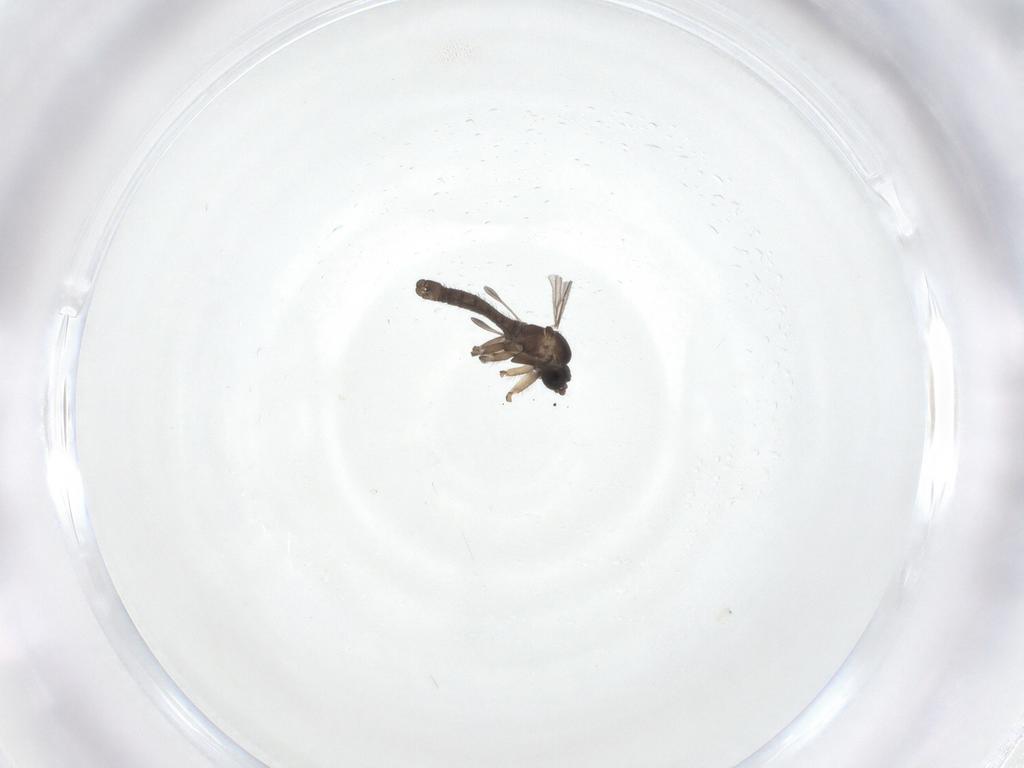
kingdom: Animalia
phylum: Arthropoda
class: Insecta
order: Diptera
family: Sciaridae
